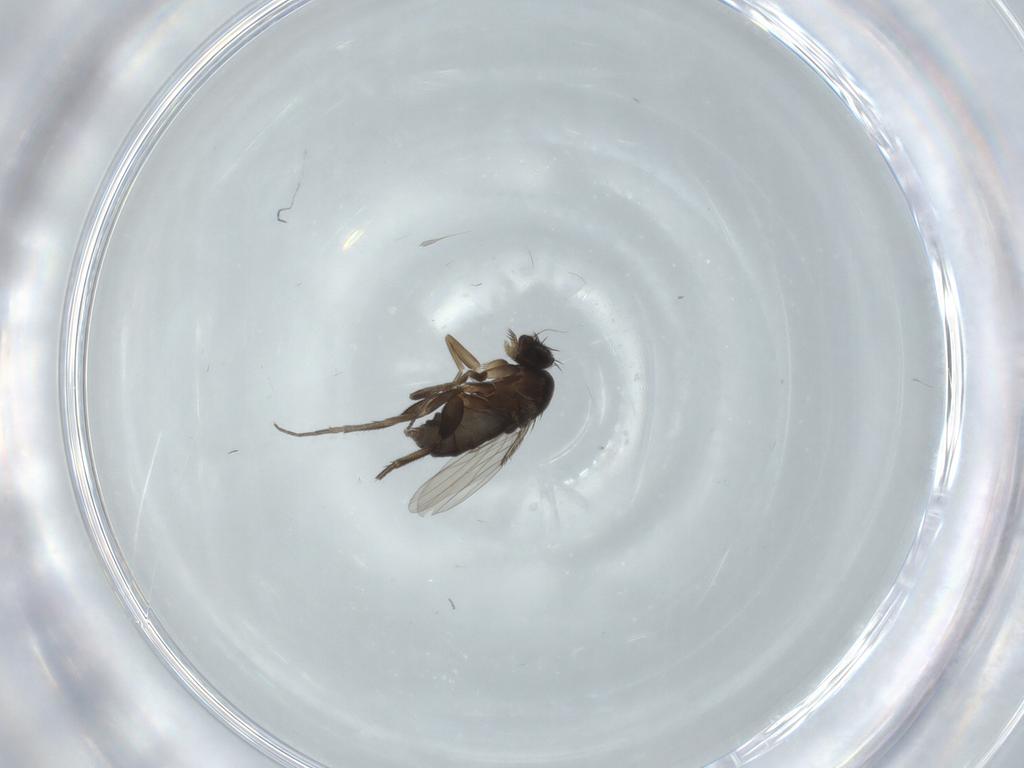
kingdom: Animalia
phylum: Arthropoda
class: Insecta
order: Diptera
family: Phoridae
